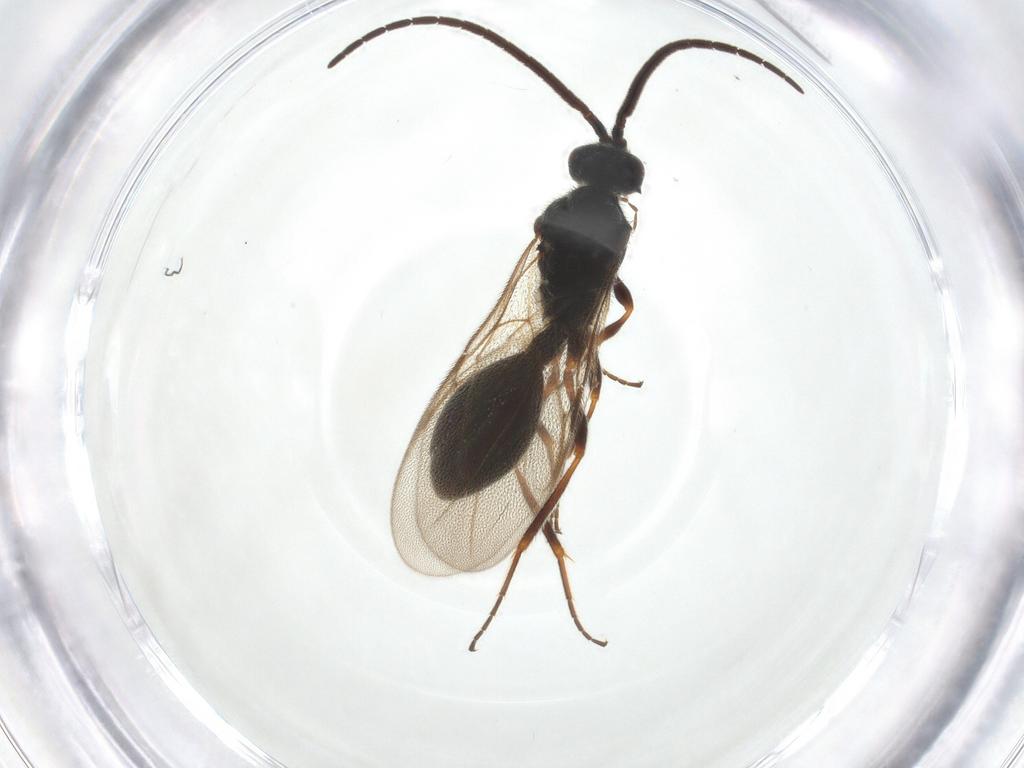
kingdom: Animalia
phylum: Arthropoda
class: Insecta
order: Hymenoptera
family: Diapriidae
